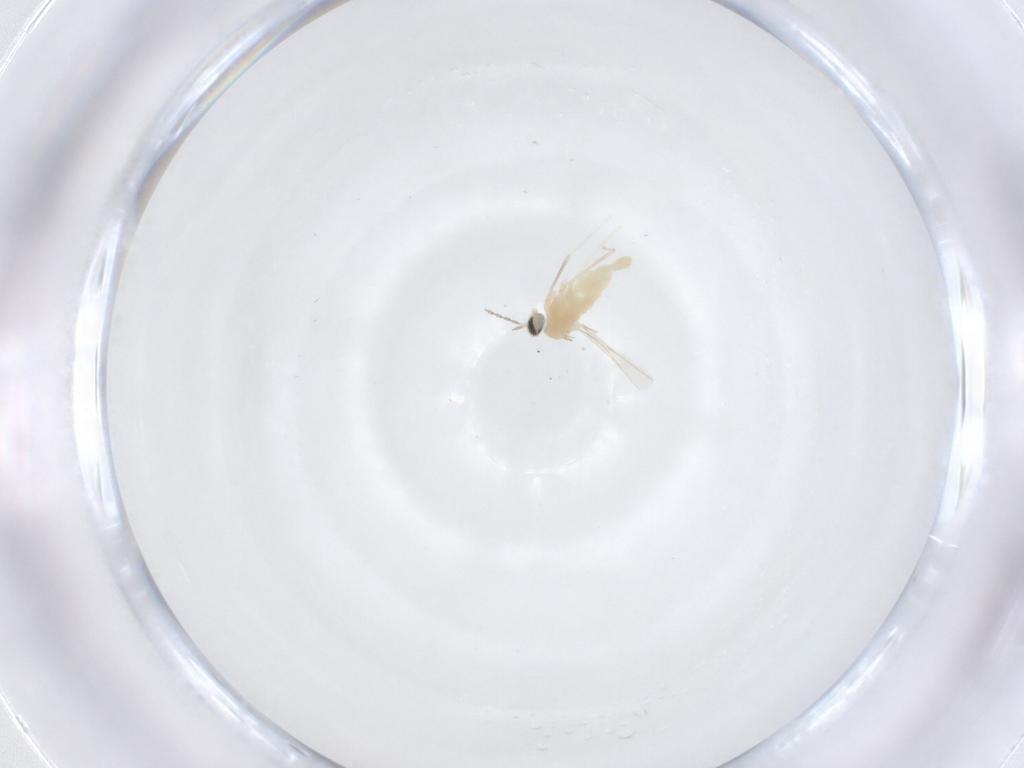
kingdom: Animalia
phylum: Arthropoda
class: Insecta
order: Diptera
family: Cecidomyiidae
